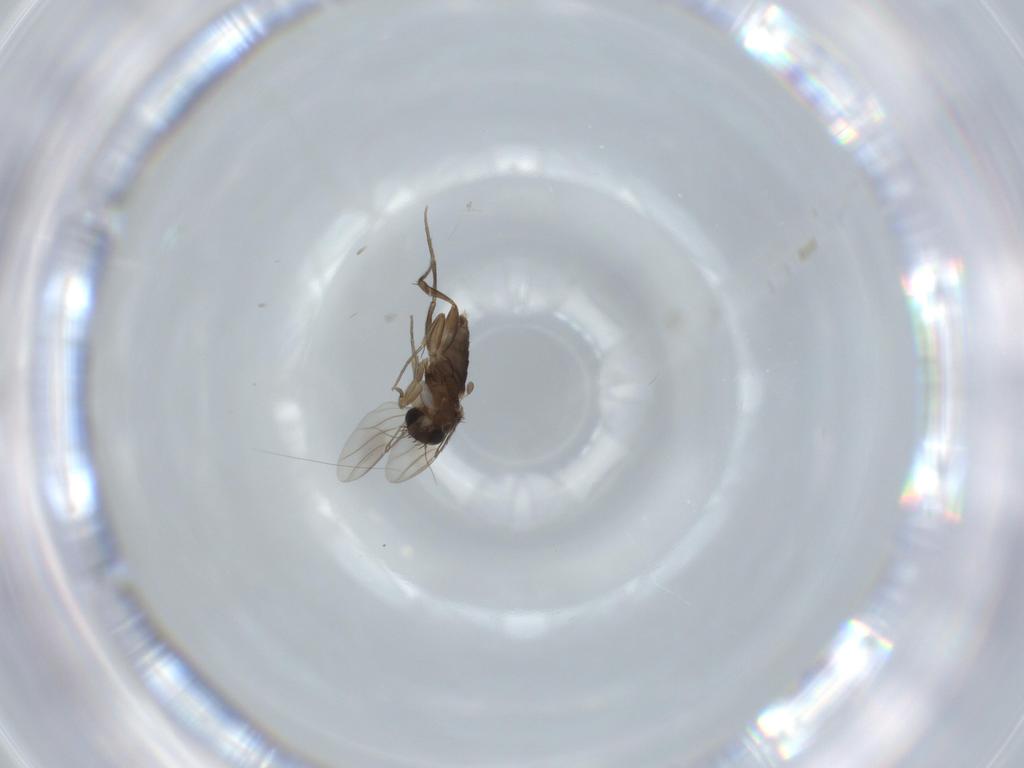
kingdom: Animalia
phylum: Arthropoda
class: Insecta
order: Diptera
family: Phoridae
